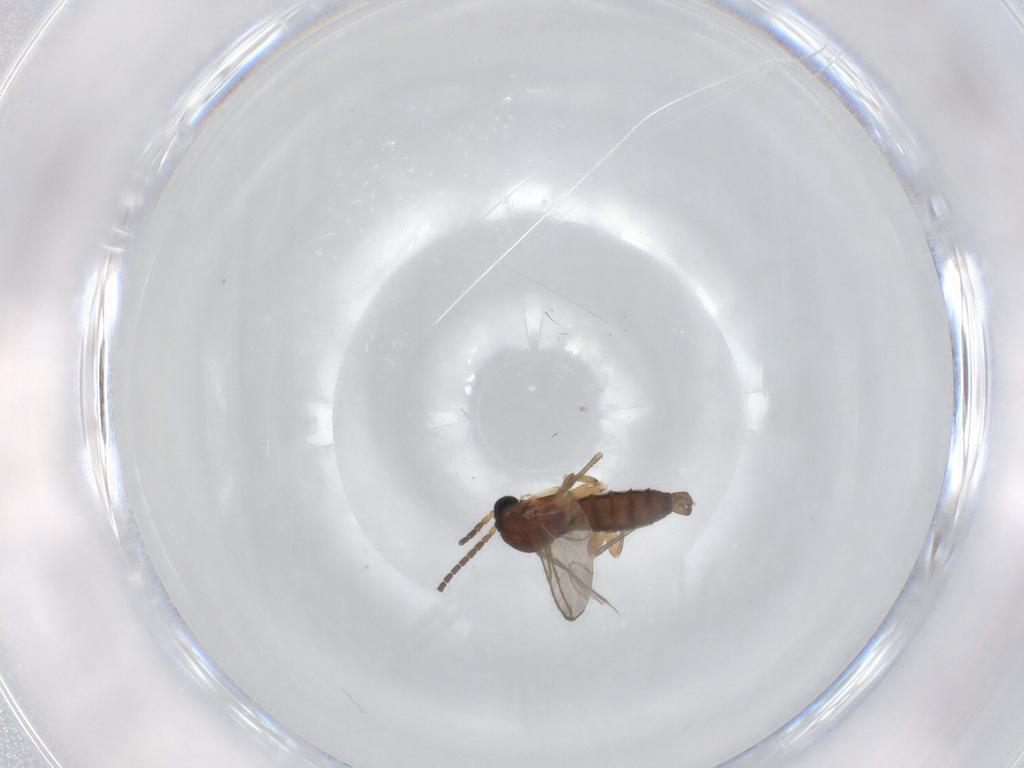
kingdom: Animalia
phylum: Arthropoda
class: Insecta
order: Diptera
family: Sciaridae
